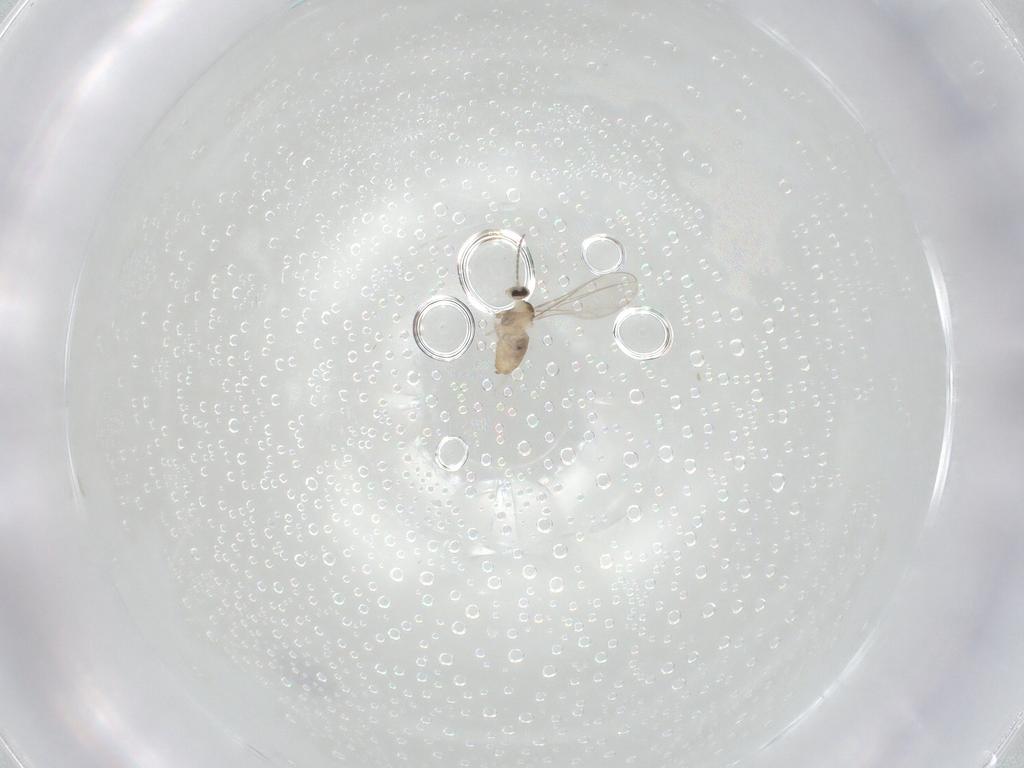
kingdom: Animalia
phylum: Arthropoda
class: Insecta
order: Diptera
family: Cecidomyiidae
